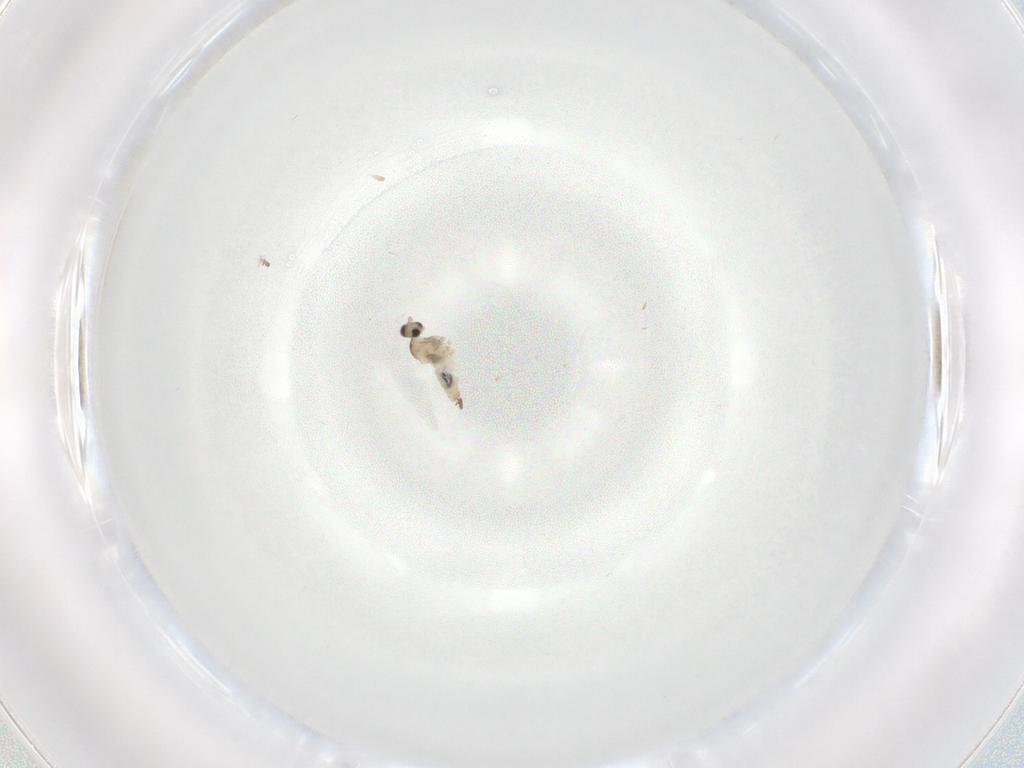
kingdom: Animalia
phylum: Arthropoda
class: Insecta
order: Diptera
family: Cecidomyiidae
